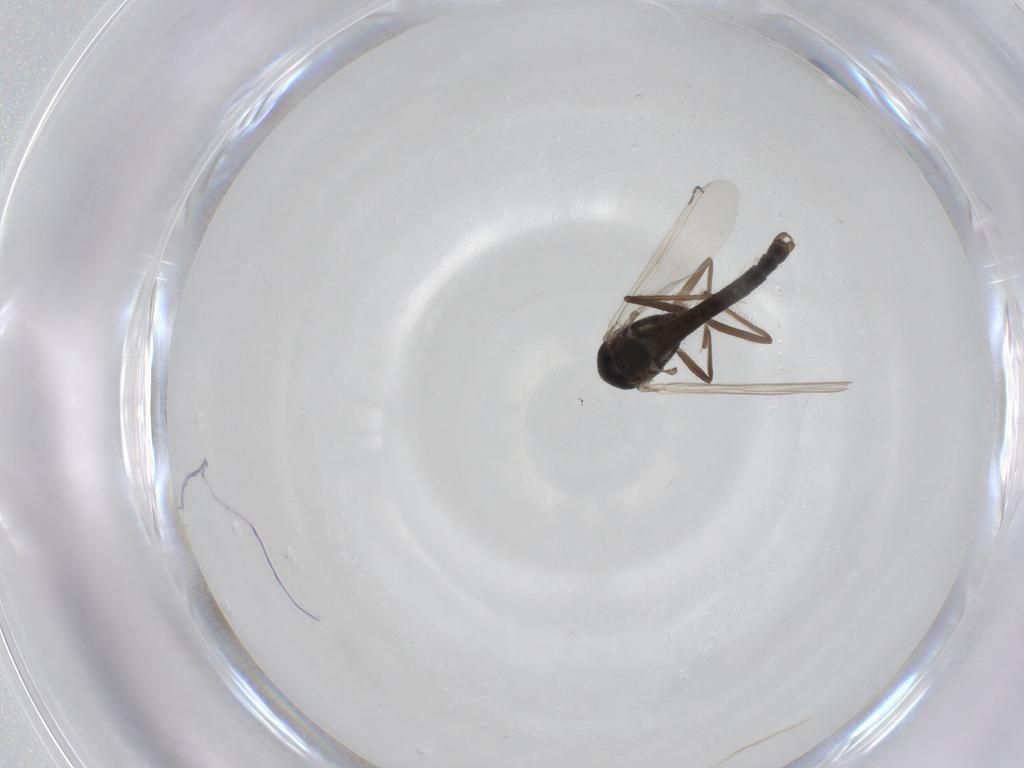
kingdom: Animalia
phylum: Arthropoda
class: Insecta
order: Diptera
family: Chironomidae
